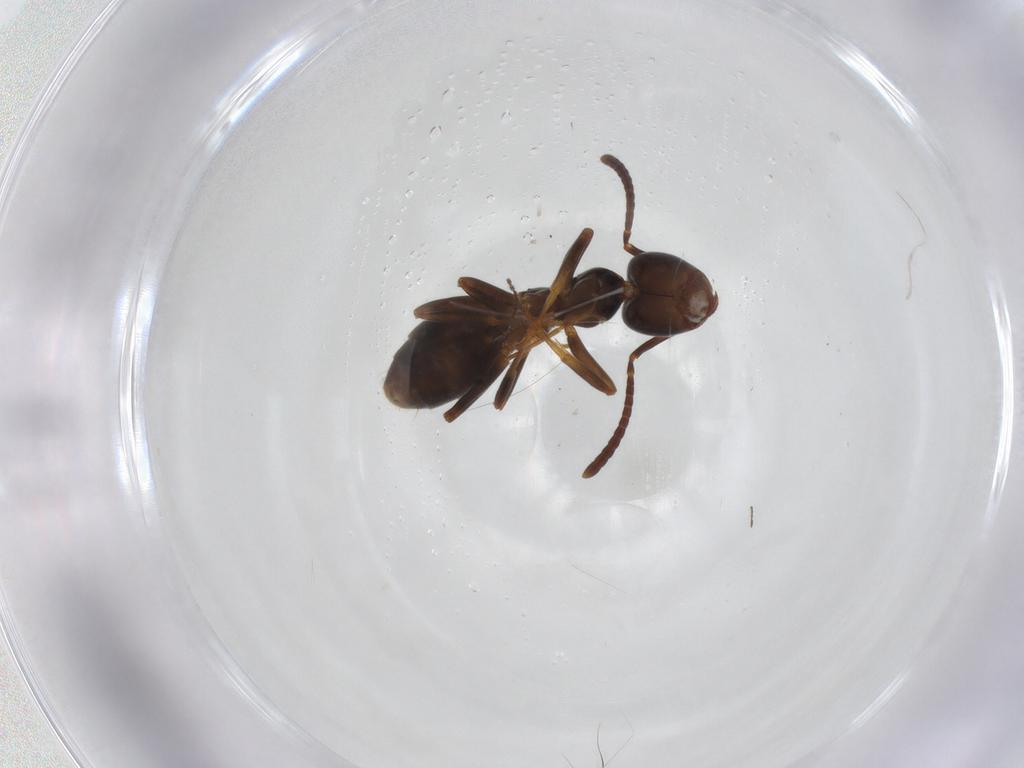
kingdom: Animalia
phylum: Arthropoda
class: Insecta
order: Hymenoptera
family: Formicidae
